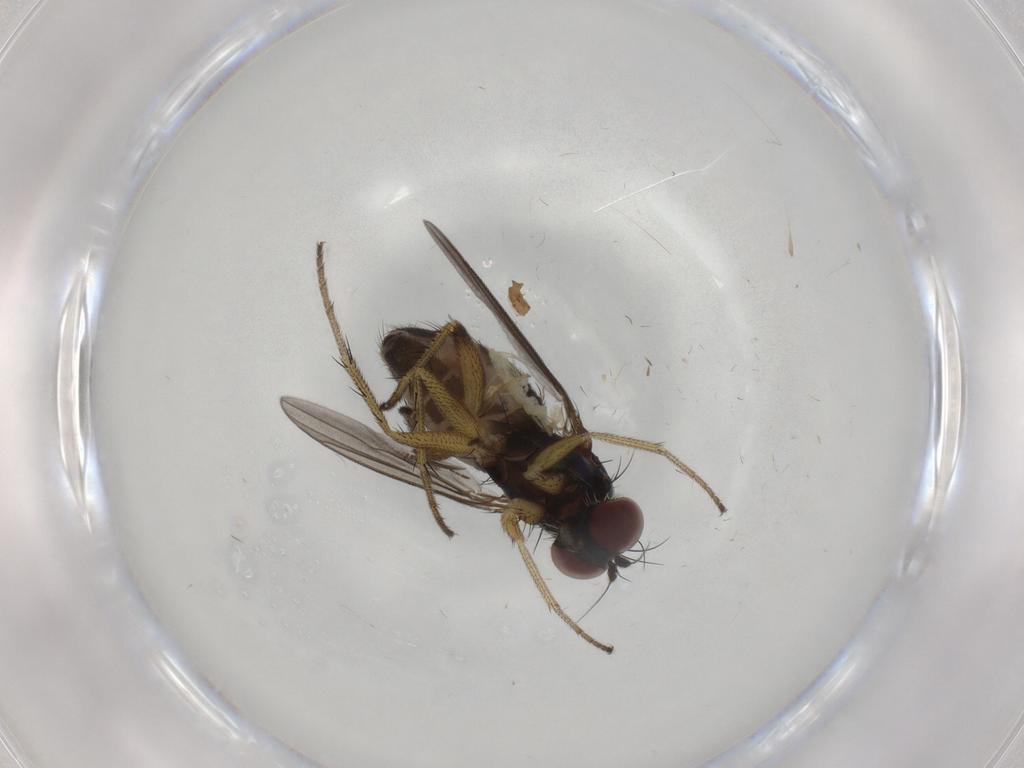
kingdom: Animalia
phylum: Arthropoda
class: Insecta
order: Diptera
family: Dolichopodidae
